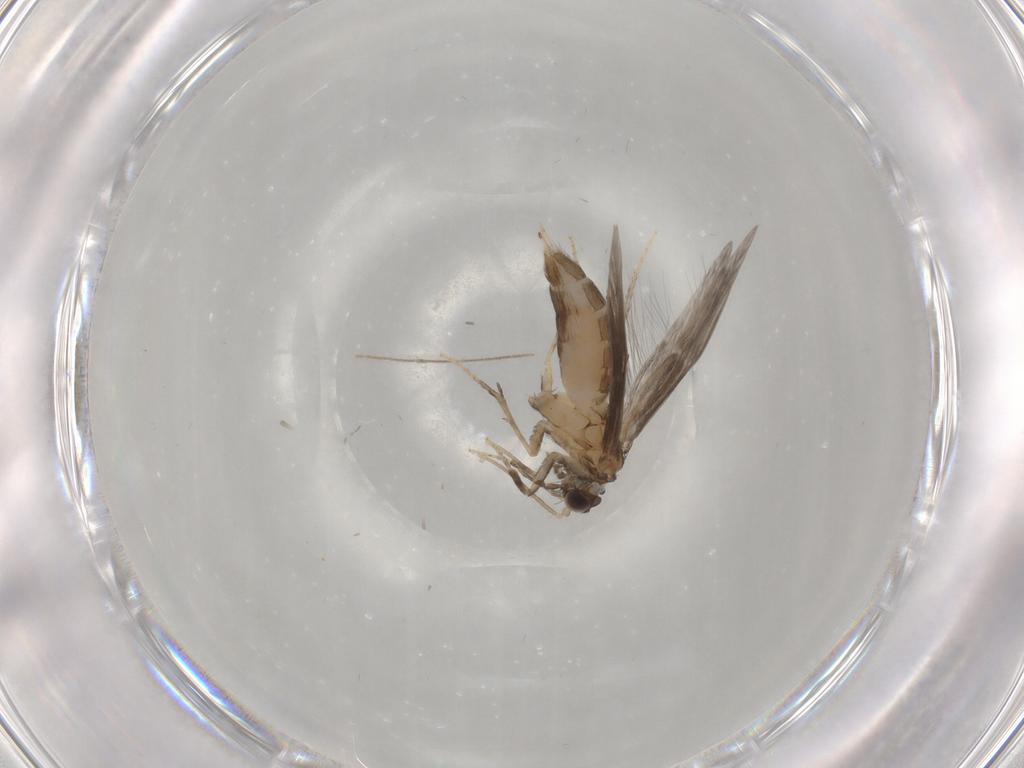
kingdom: Animalia
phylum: Arthropoda
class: Insecta
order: Trichoptera
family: Hydroptilidae
